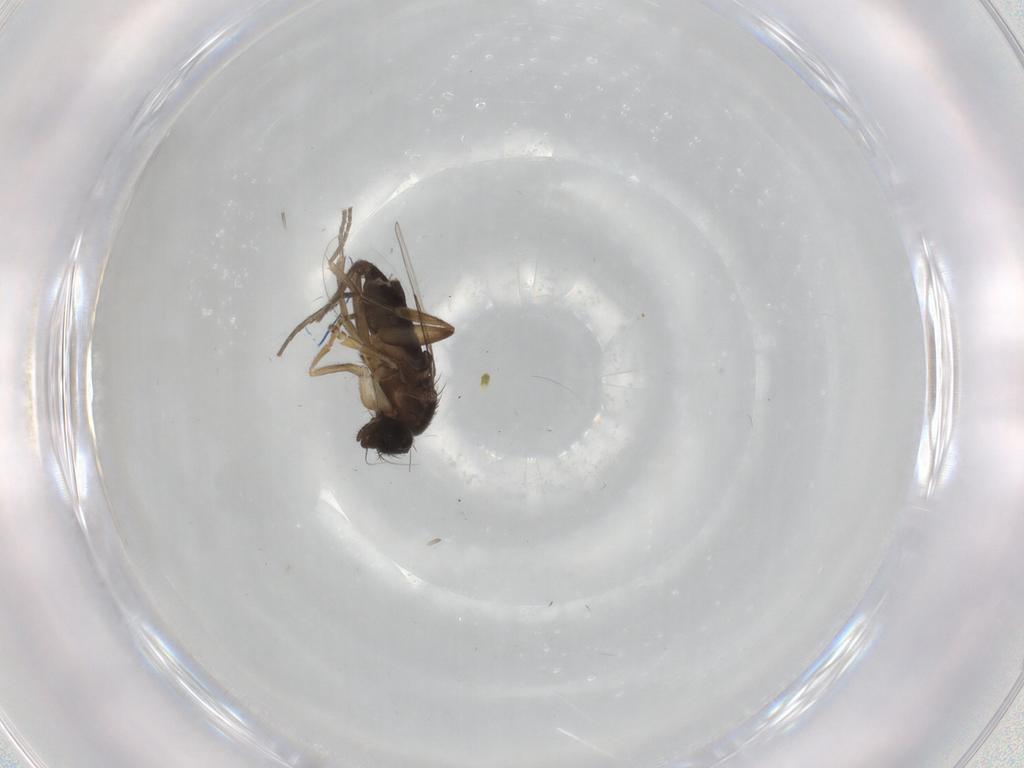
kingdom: Animalia
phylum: Arthropoda
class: Insecta
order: Diptera
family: Phoridae
